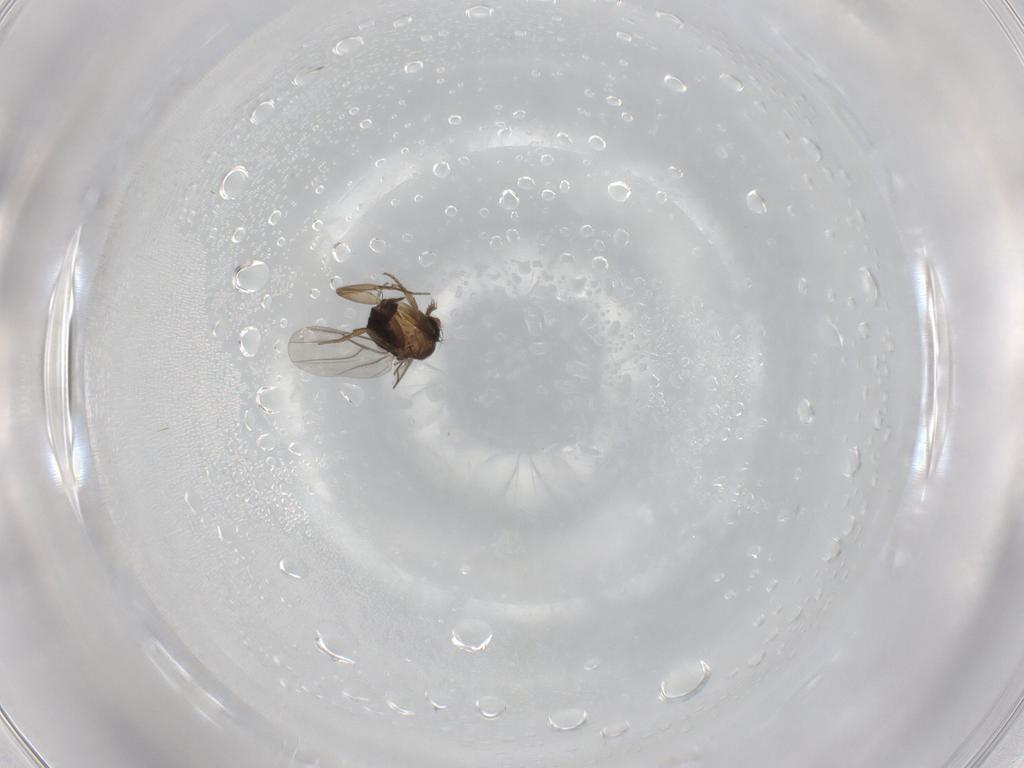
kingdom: Animalia
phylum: Arthropoda
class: Insecta
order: Diptera
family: Phoridae
